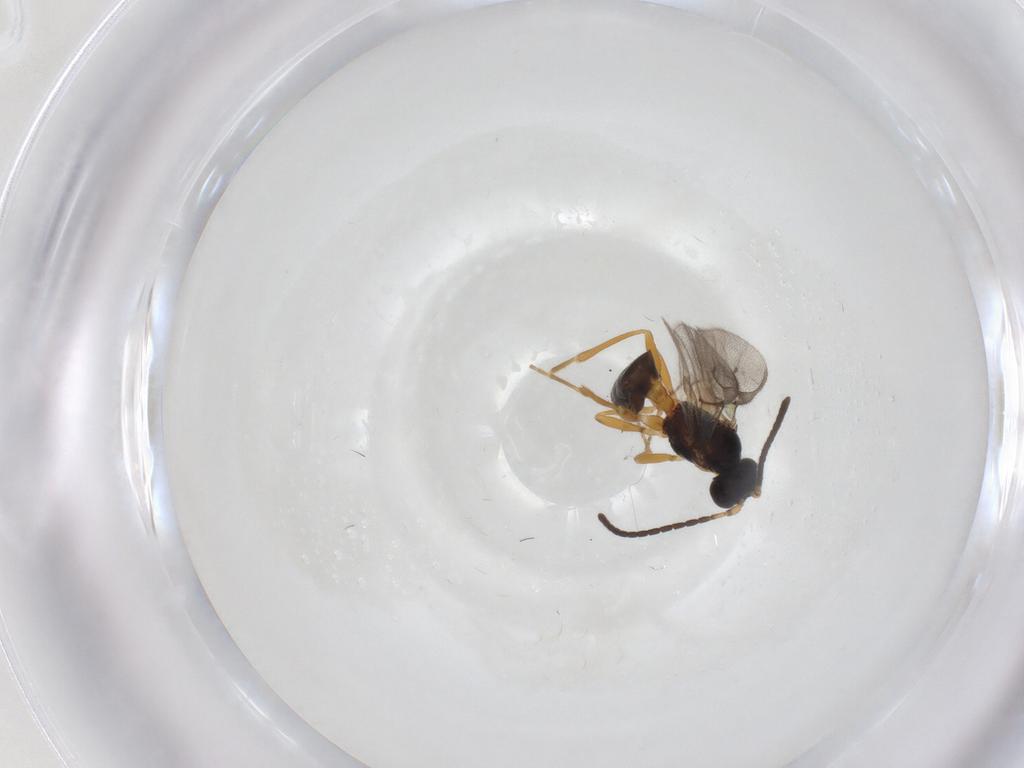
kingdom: Animalia
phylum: Arthropoda
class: Insecta
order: Hymenoptera
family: Braconidae
